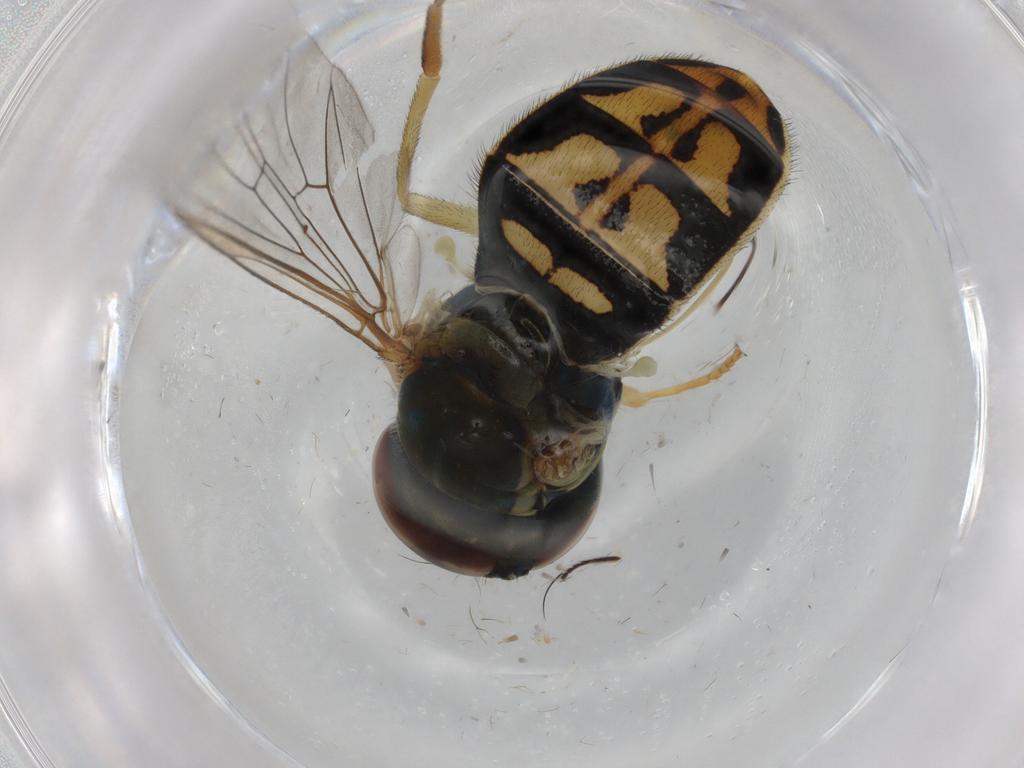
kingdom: Animalia
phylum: Arthropoda
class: Insecta
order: Diptera
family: Syrphidae
